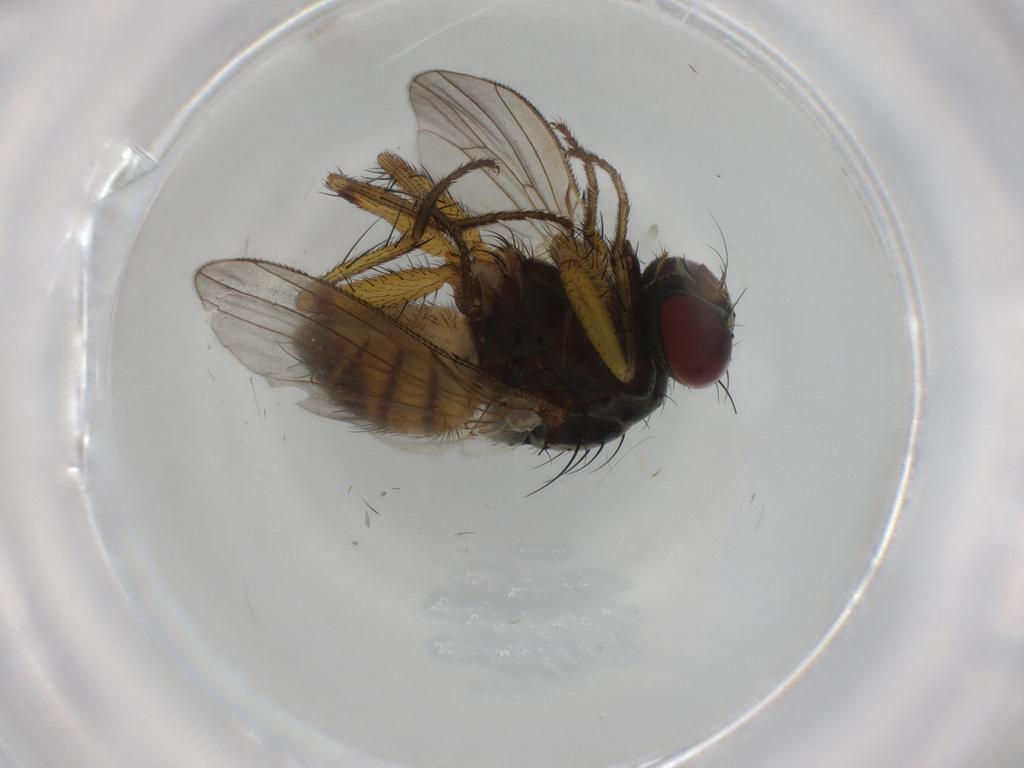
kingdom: Animalia
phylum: Arthropoda
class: Insecta
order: Diptera
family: Muscidae
